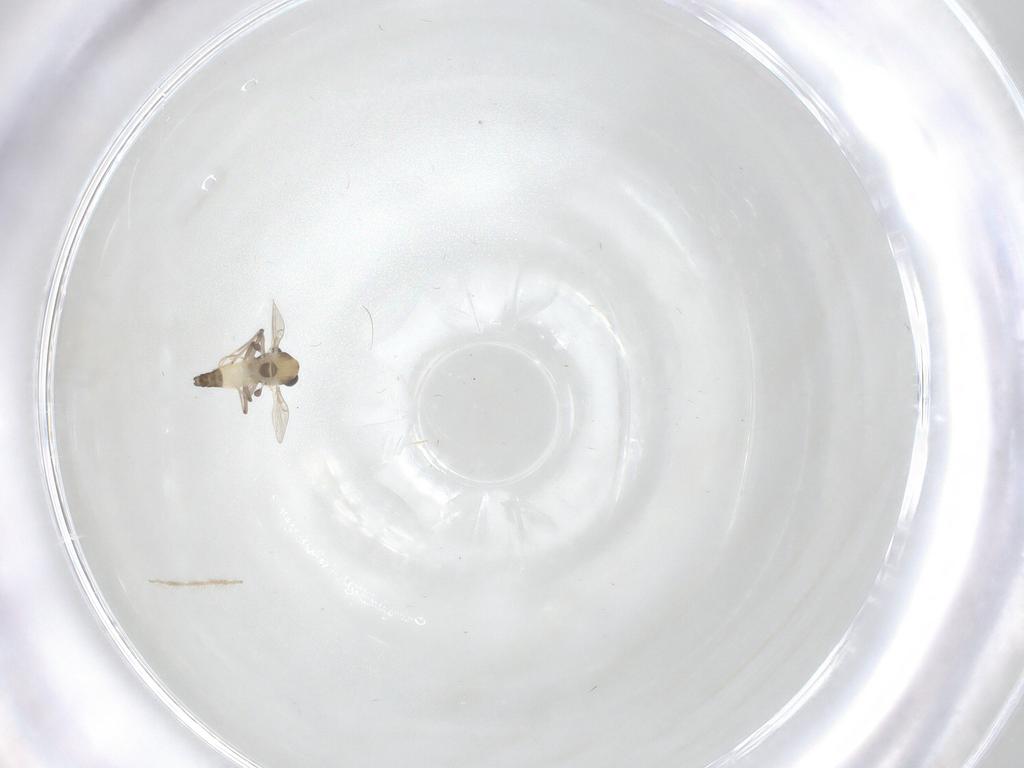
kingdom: Animalia
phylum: Arthropoda
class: Insecta
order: Diptera
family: Chironomidae
